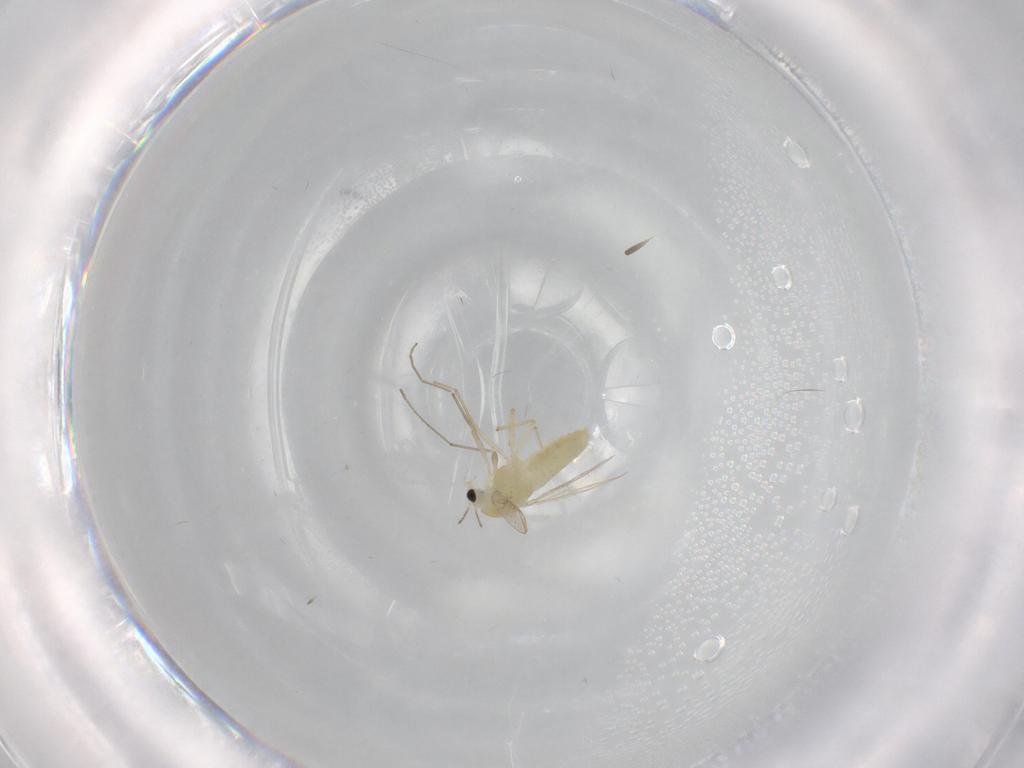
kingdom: Animalia
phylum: Arthropoda
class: Insecta
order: Diptera
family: Chironomidae
